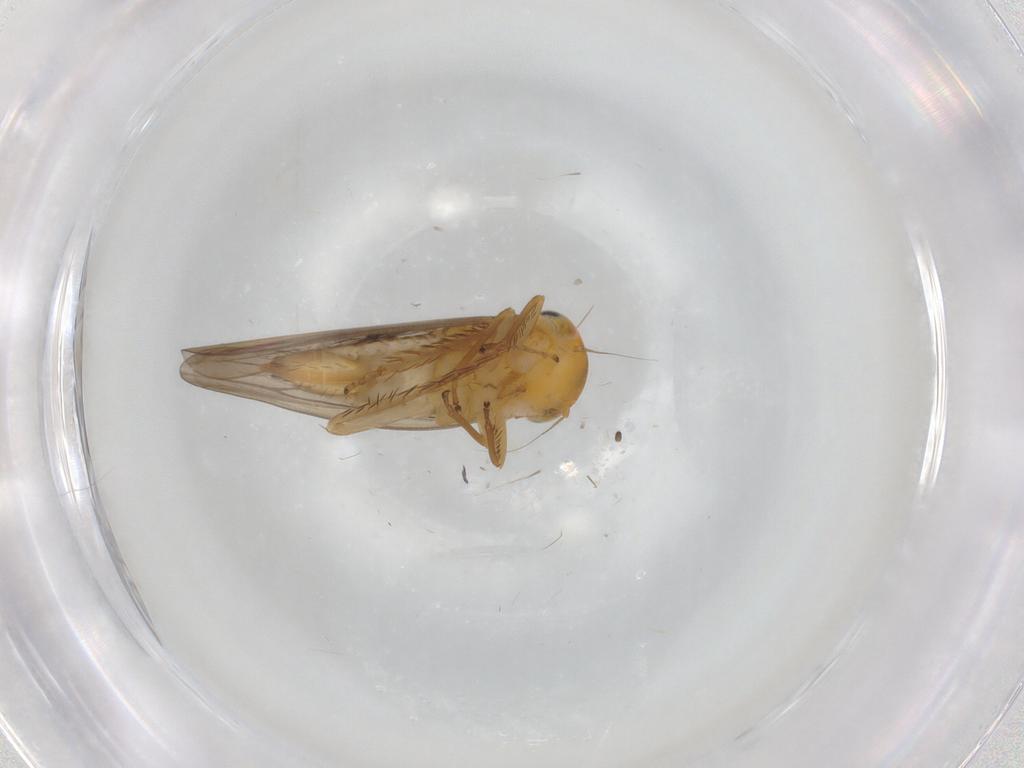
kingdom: Animalia
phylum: Arthropoda
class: Insecta
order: Hemiptera
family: Cicadellidae
